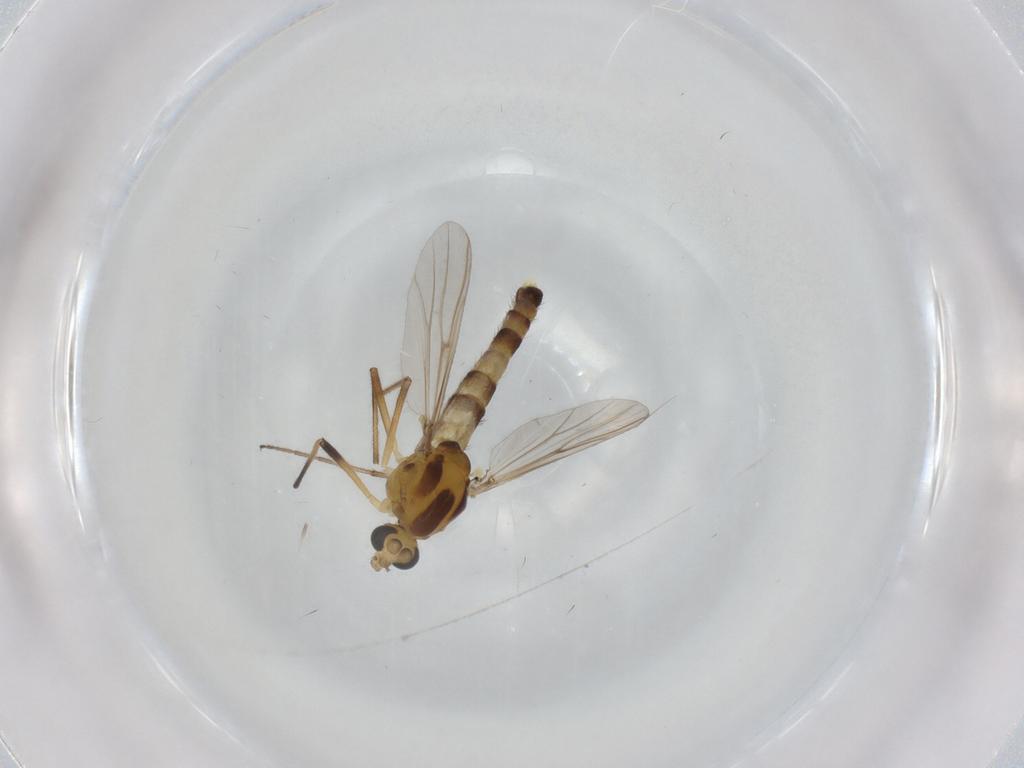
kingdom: Animalia
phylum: Arthropoda
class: Insecta
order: Diptera
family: Chironomidae
